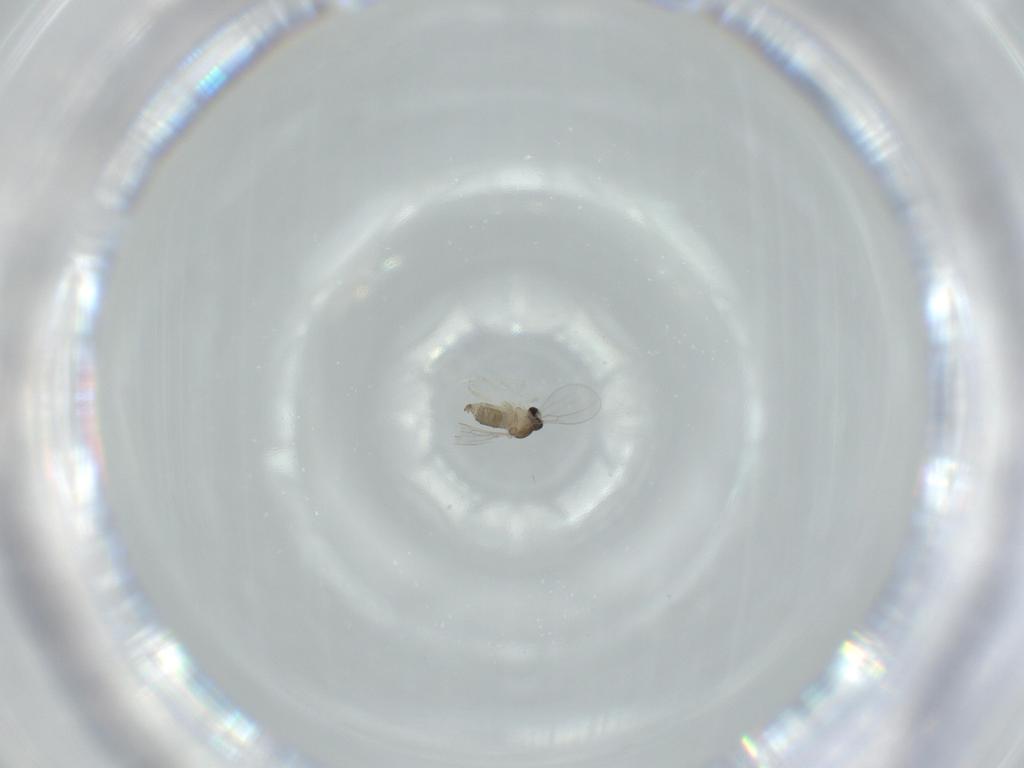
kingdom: Animalia
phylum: Arthropoda
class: Insecta
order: Diptera
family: Cecidomyiidae
